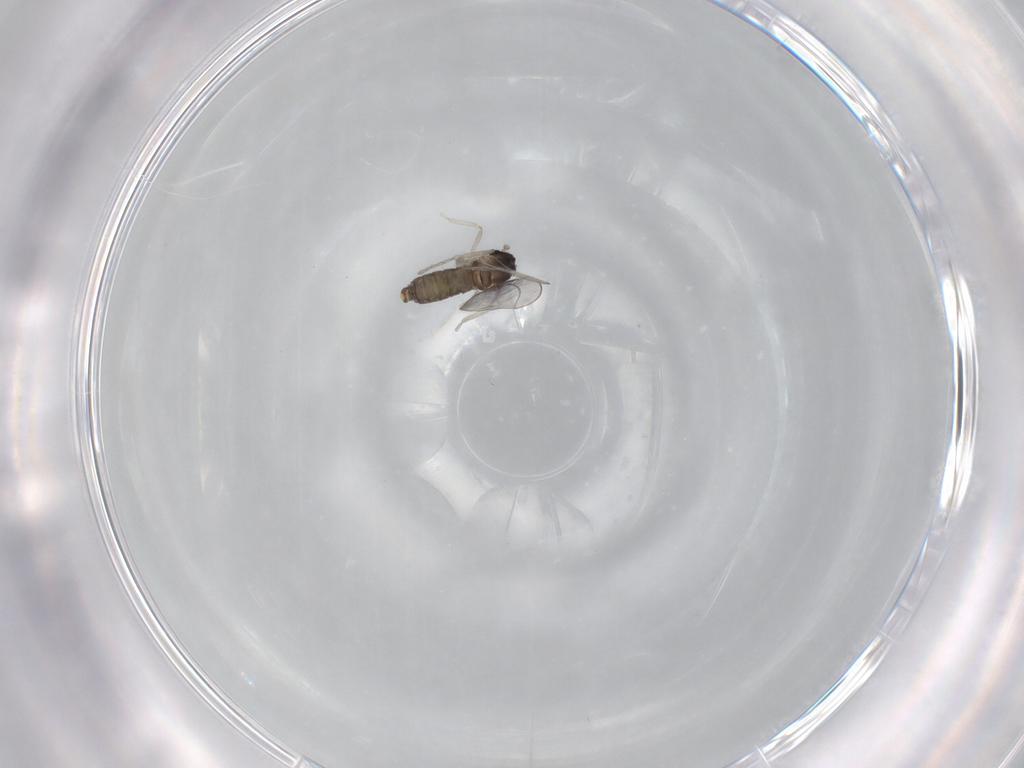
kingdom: Animalia
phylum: Arthropoda
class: Insecta
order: Diptera
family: Cecidomyiidae
